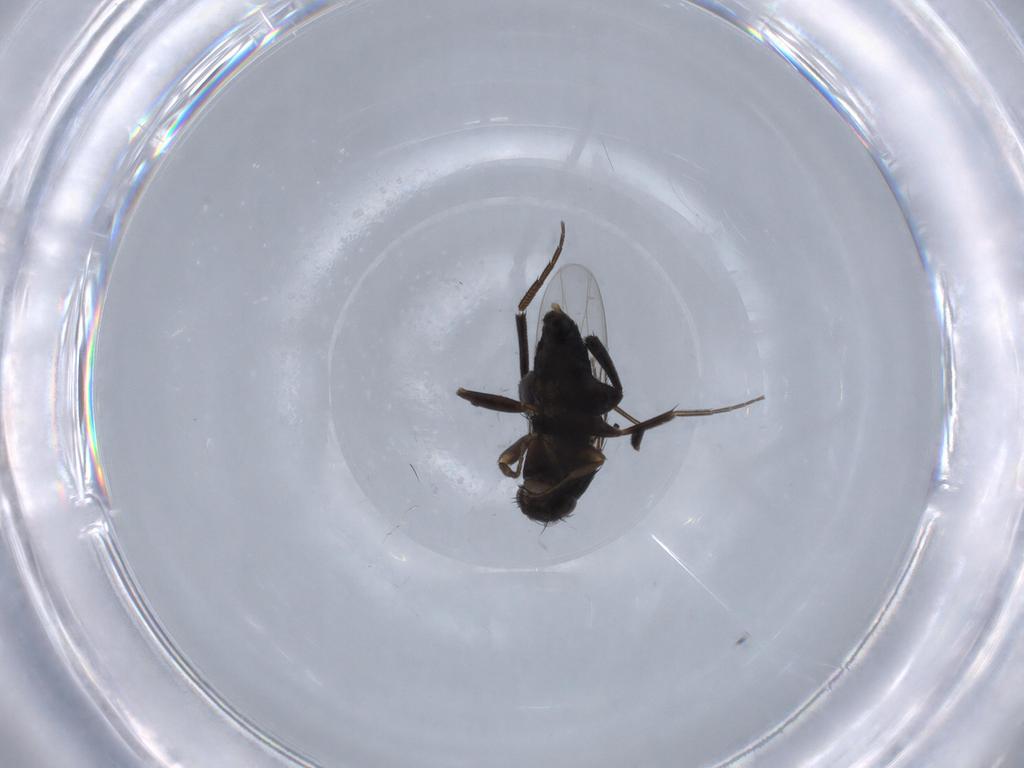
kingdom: Animalia
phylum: Arthropoda
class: Insecta
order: Diptera
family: Phoridae
